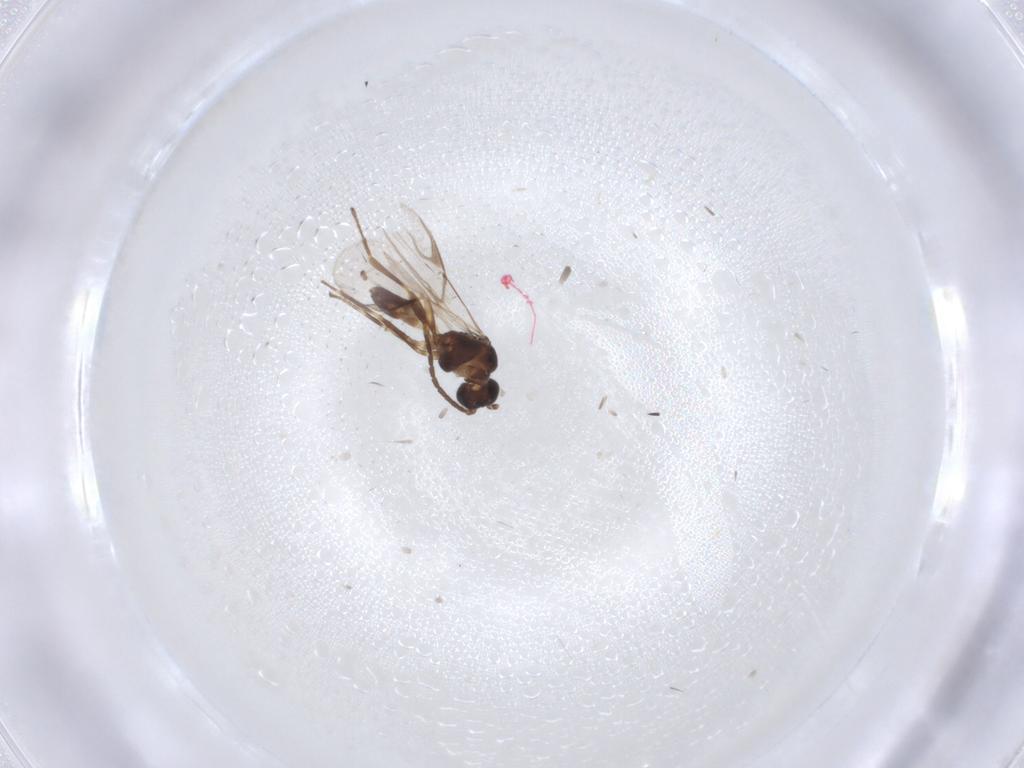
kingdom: Animalia
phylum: Arthropoda
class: Insecta
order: Hymenoptera
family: Braconidae
